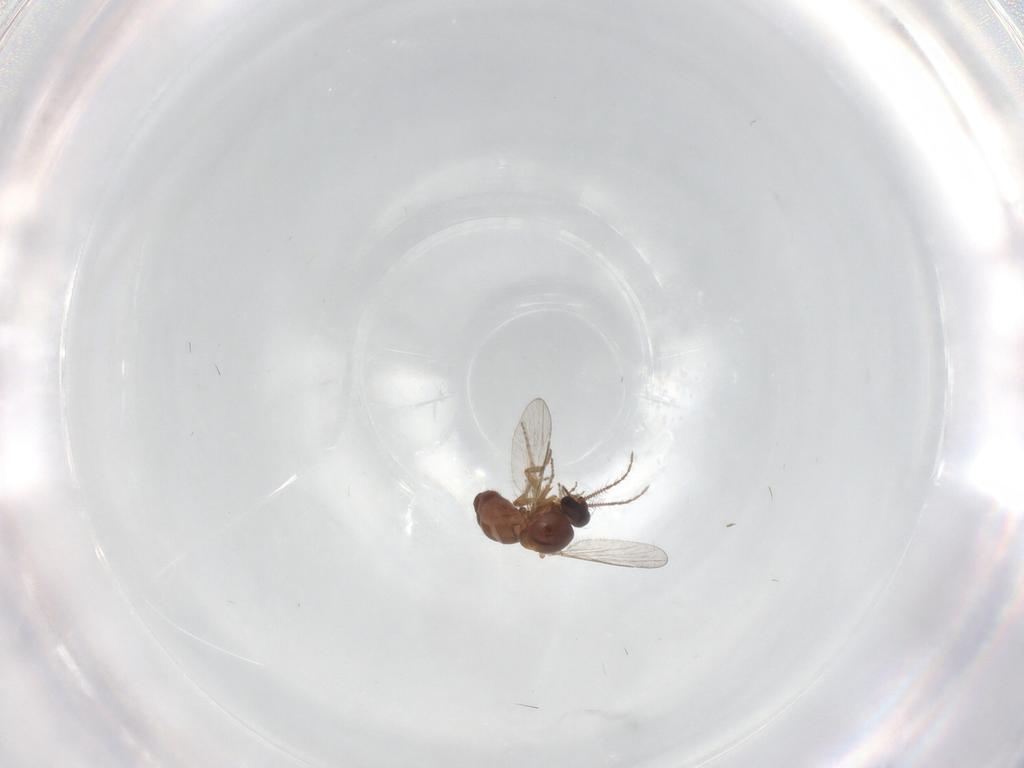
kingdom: Animalia
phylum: Arthropoda
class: Insecta
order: Diptera
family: Ceratopogonidae
